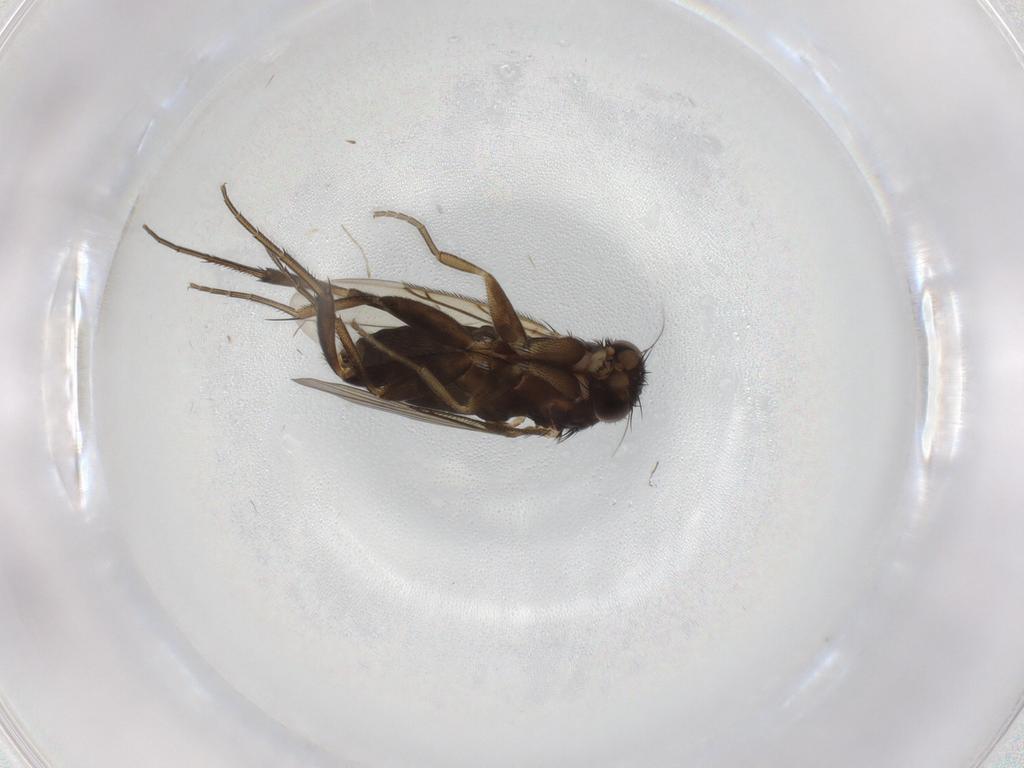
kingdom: Animalia
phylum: Arthropoda
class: Insecta
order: Diptera
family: Phoridae
